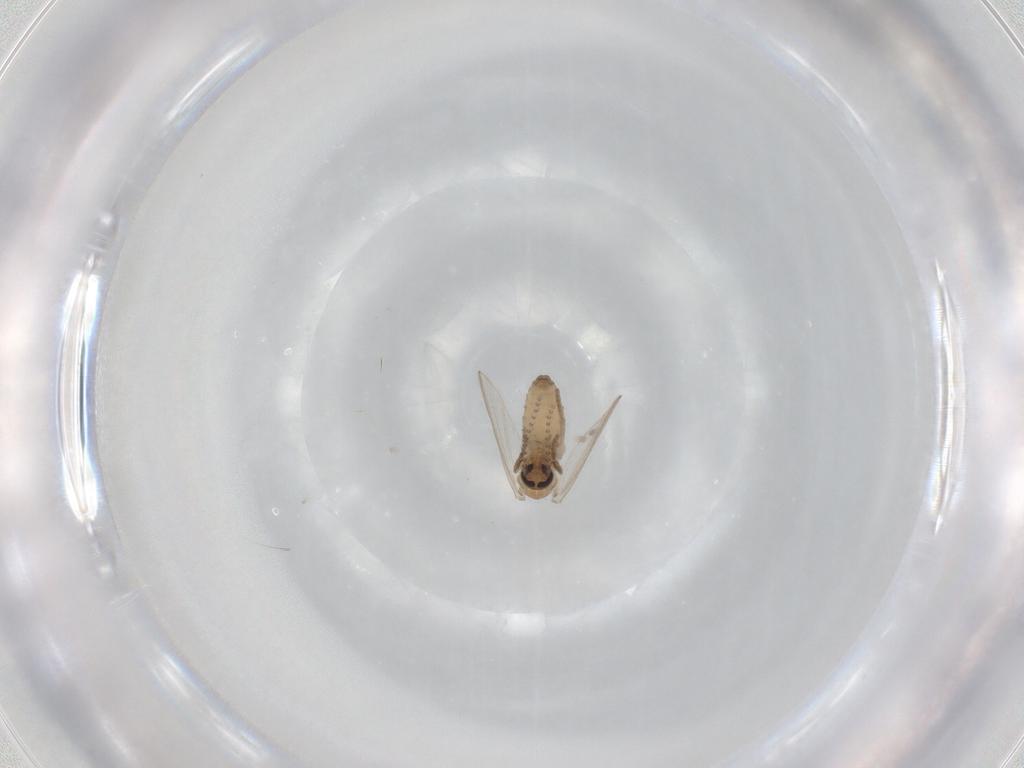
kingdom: Animalia
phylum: Arthropoda
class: Insecta
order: Diptera
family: Psychodidae
